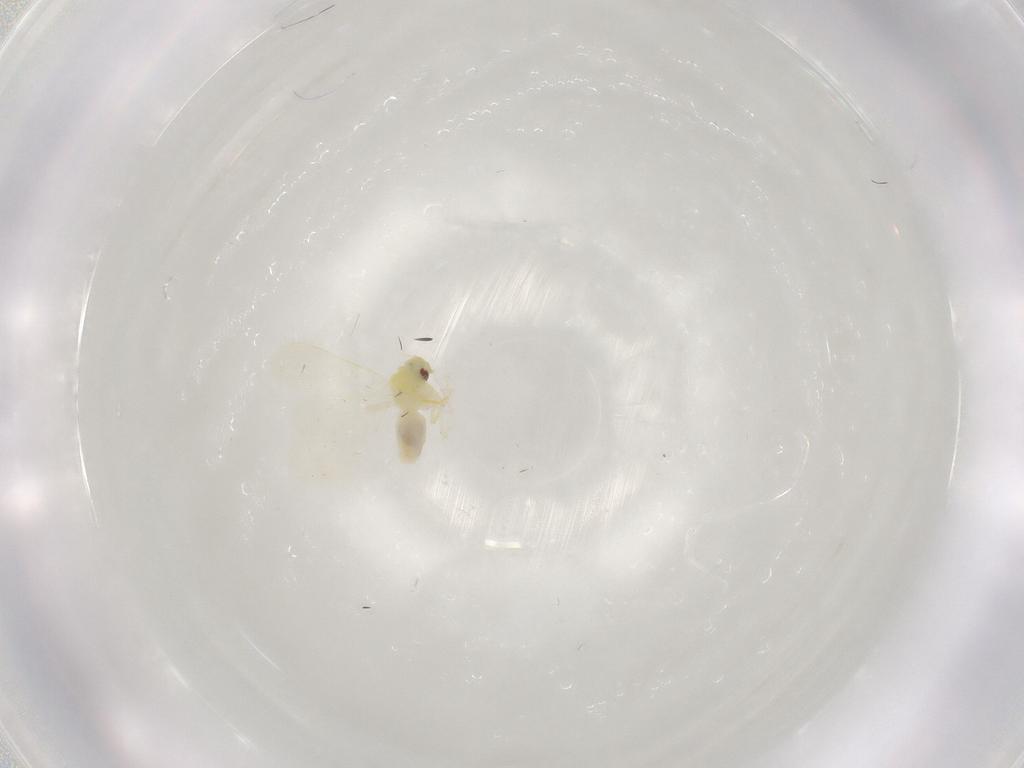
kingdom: Animalia
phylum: Arthropoda
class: Insecta
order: Hemiptera
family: Aleyrodidae
